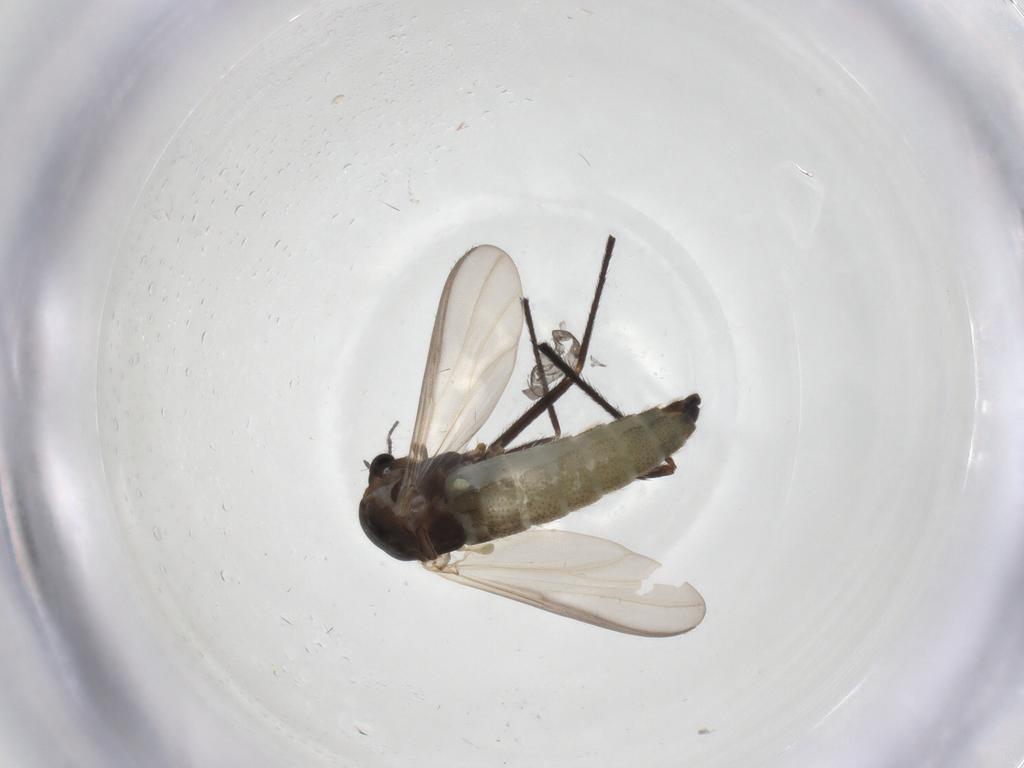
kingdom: Animalia
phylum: Arthropoda
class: Insecta
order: Diptera
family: Chironomidae
